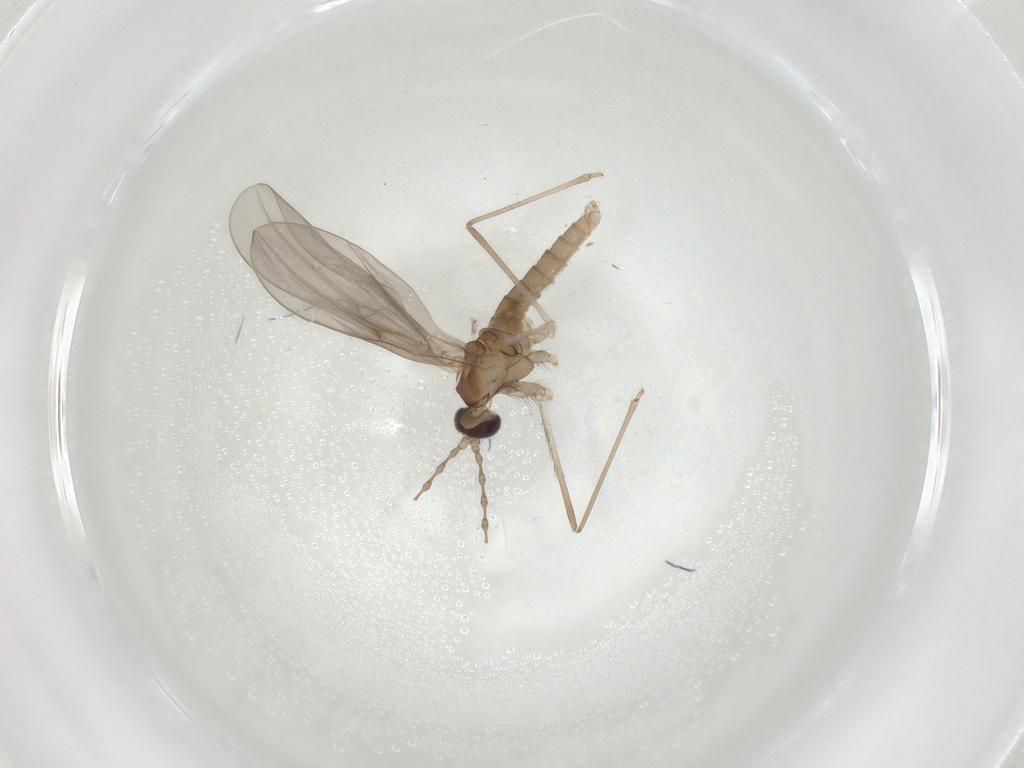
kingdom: Animalia
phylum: Arthropoda
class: Insecta
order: Diptera
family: Cecidomyiidae
